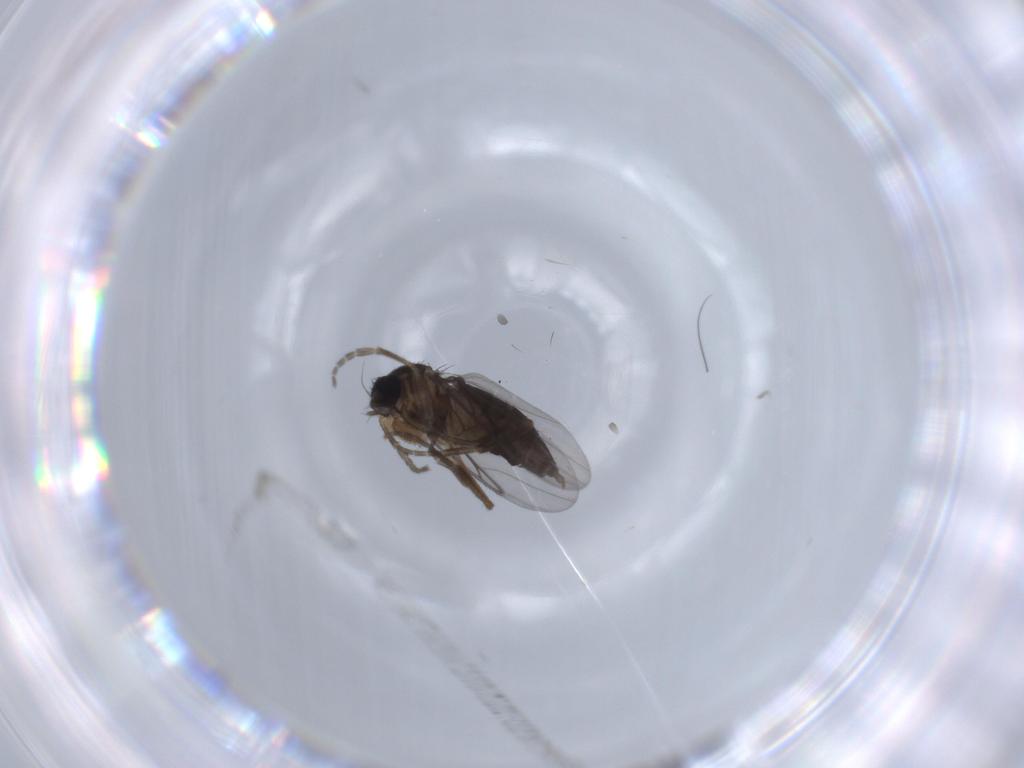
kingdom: Animalia
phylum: Arthropoda
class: Insecta
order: Diptera
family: Phoridae
